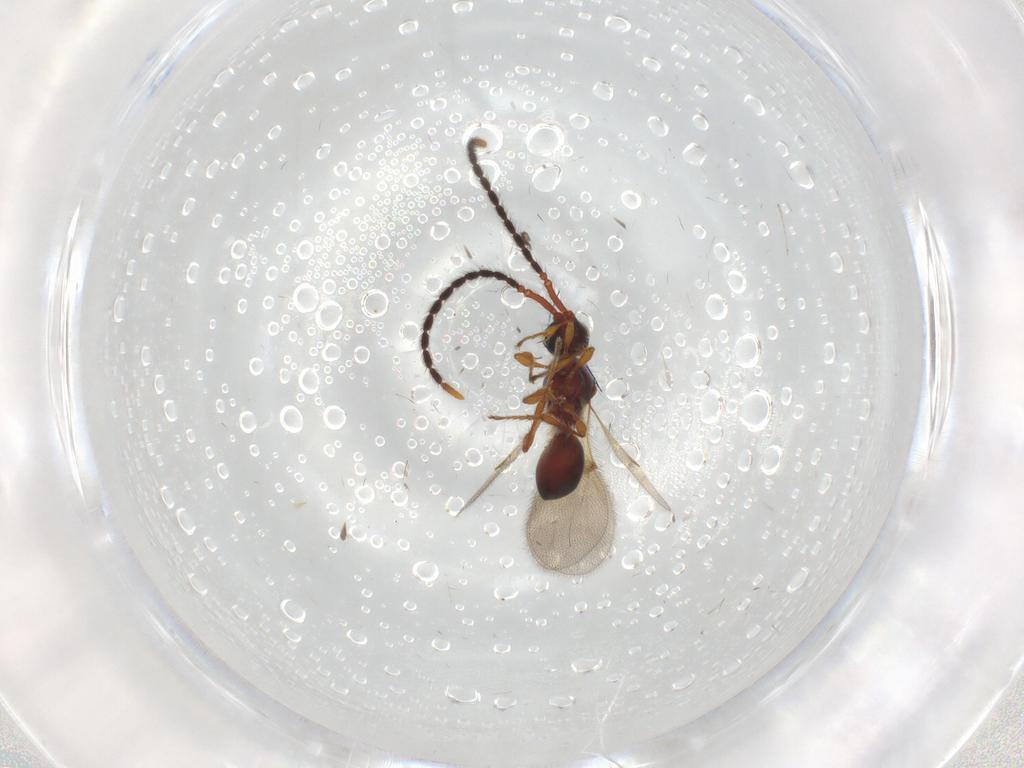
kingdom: Animalia
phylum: Arthropoda
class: Insecta
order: Hymenoptera
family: Diapriidae
